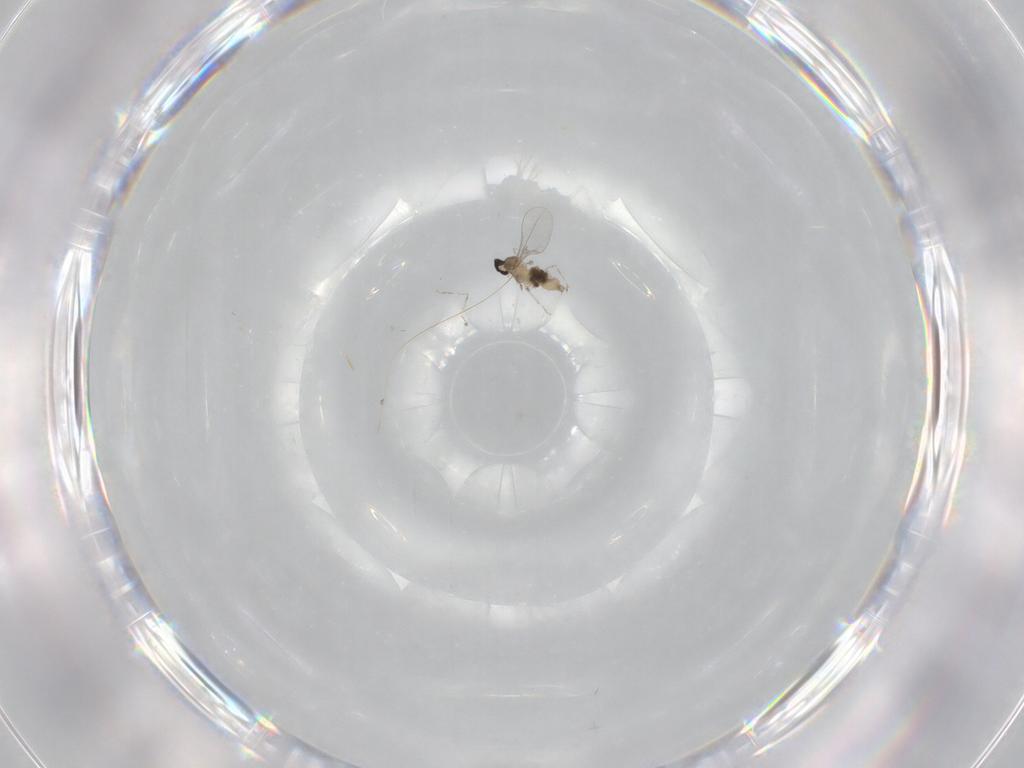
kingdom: Animalia
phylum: Arthropoda
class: Insecta
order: Diptera
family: Cecidomyiidae
